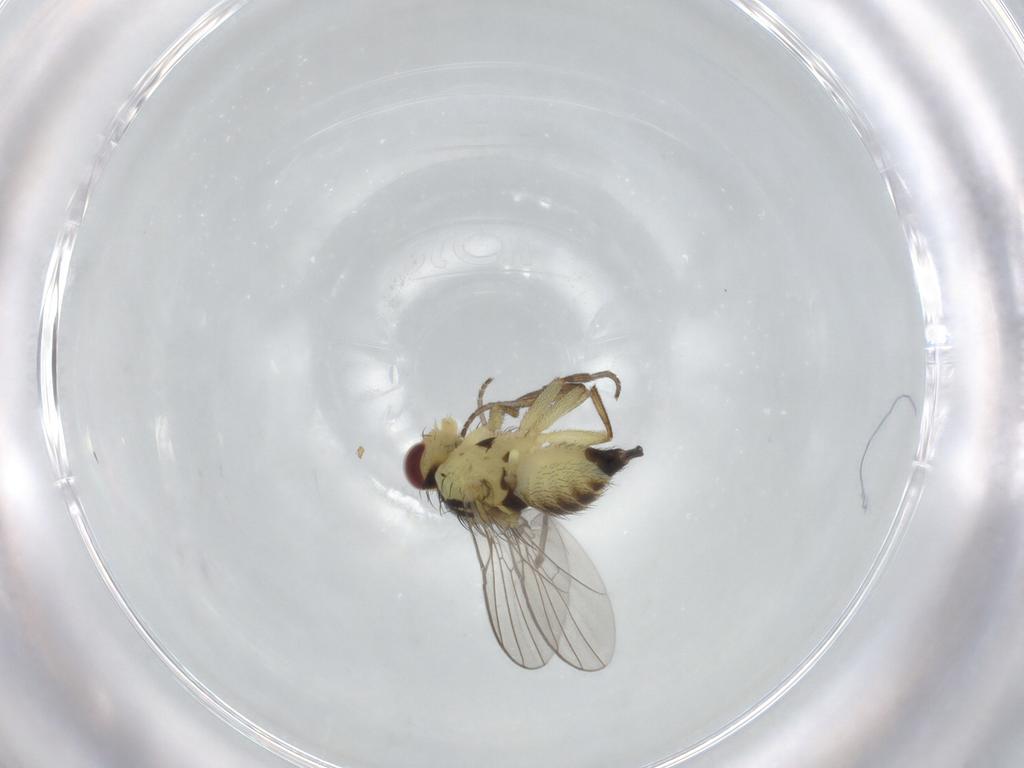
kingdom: Animalia
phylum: Arthropoda
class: Insecta
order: Diptera
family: Agromyzidae
